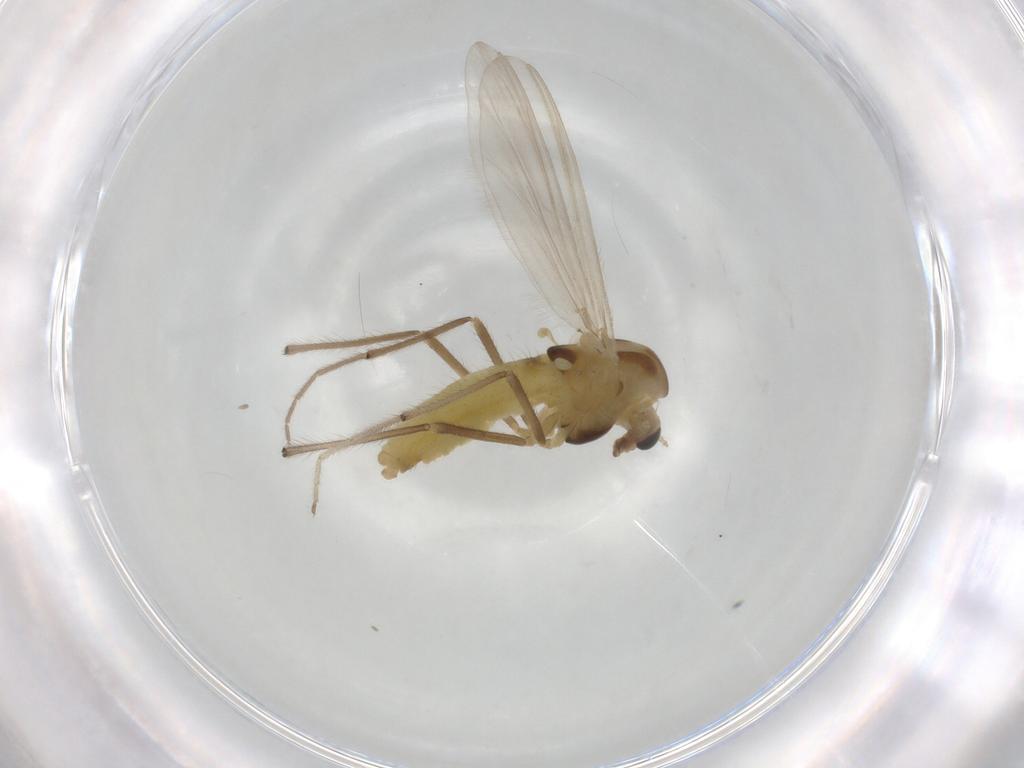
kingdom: Animalia
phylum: Arthropoda
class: Insecta
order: Diptera
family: Chironomidae
